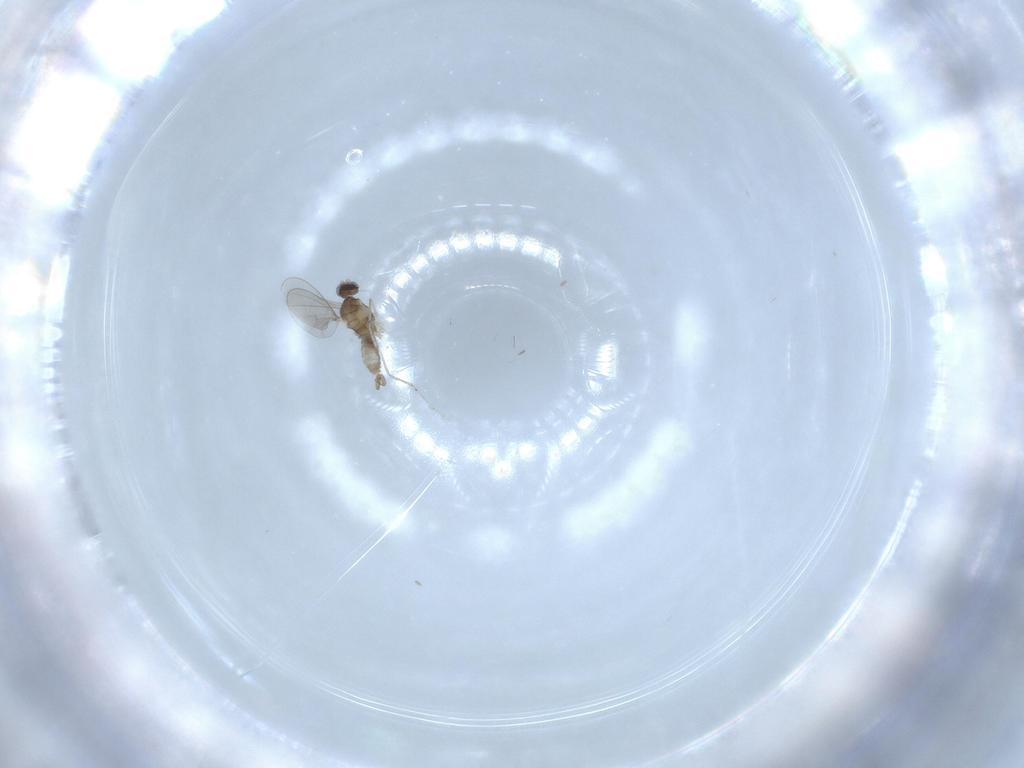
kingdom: Animalia
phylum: Arthropoda
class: Insecta
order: Diptera
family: Cecidomyiidae
